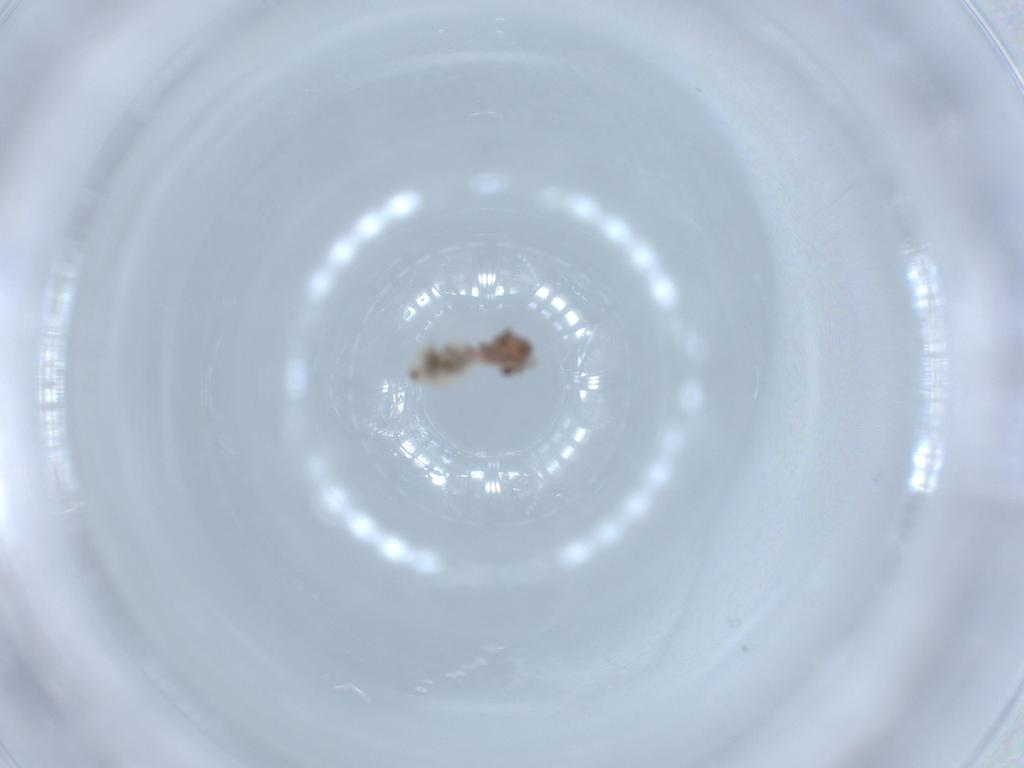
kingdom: Animalia
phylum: Arthropoda
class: Insecta
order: Coleoptera
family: Chrysomelidae
